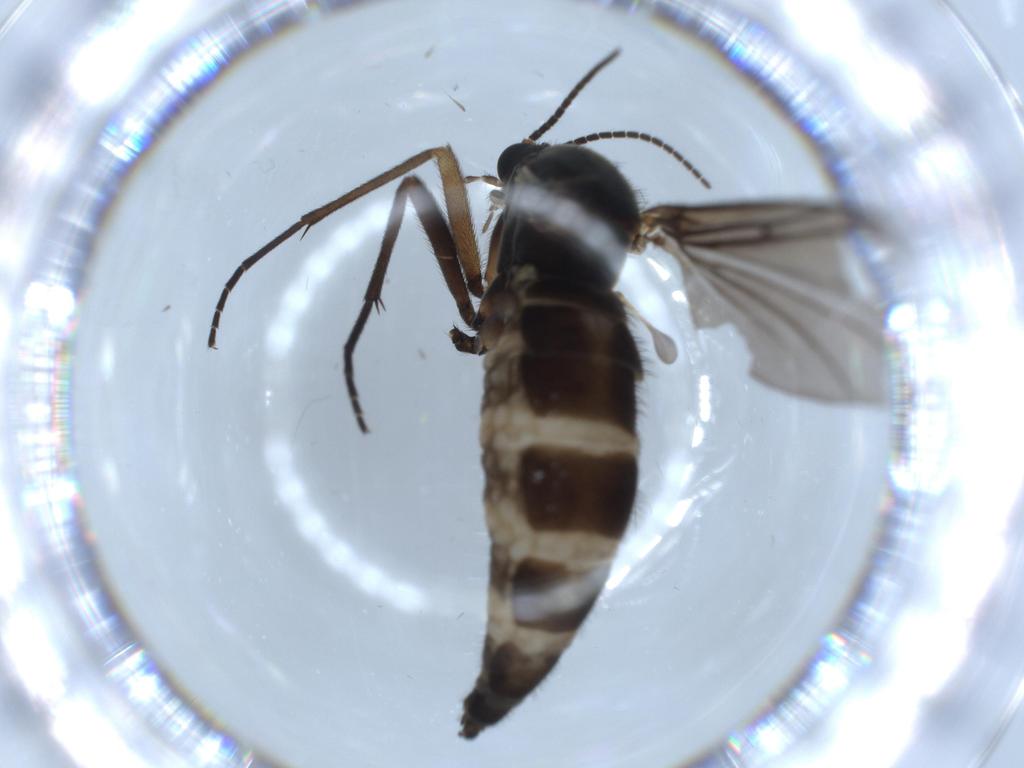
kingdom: Animalia
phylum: Arthropoda
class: Insecta
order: Diptera
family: Sciaridae
